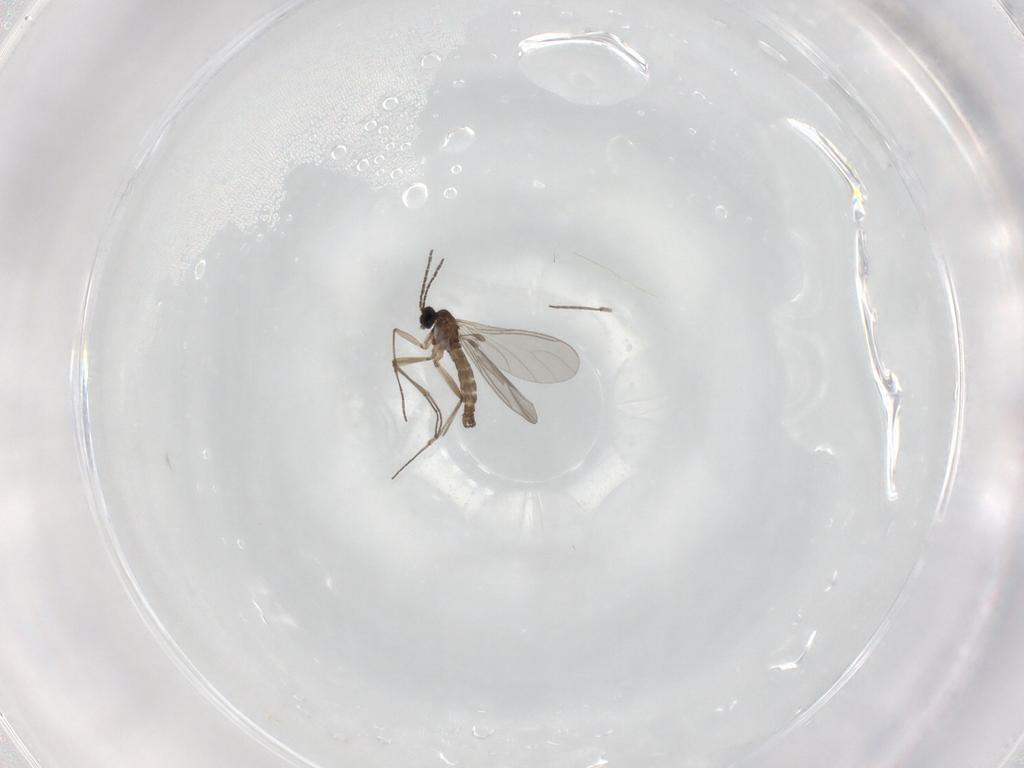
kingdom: Animalia
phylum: Arthropoda
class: Insecta
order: Diptera
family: Sciaridae
